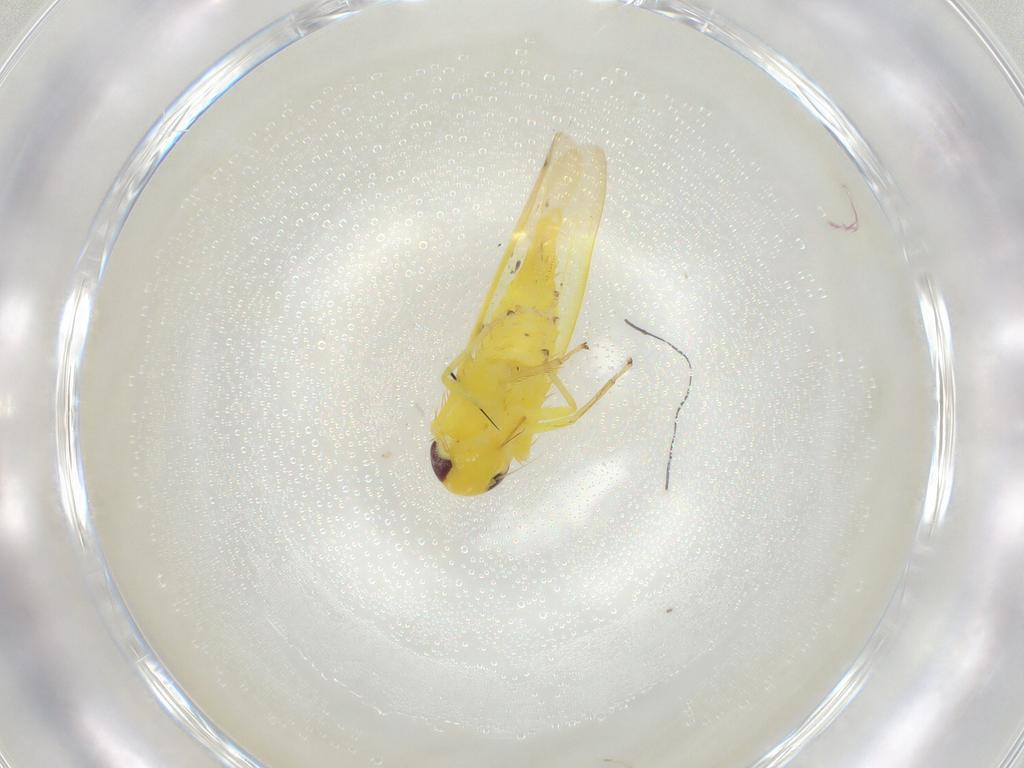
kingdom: Animalia
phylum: Arthropoda
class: Insecta
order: Hemiptera
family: Cicadellidae
